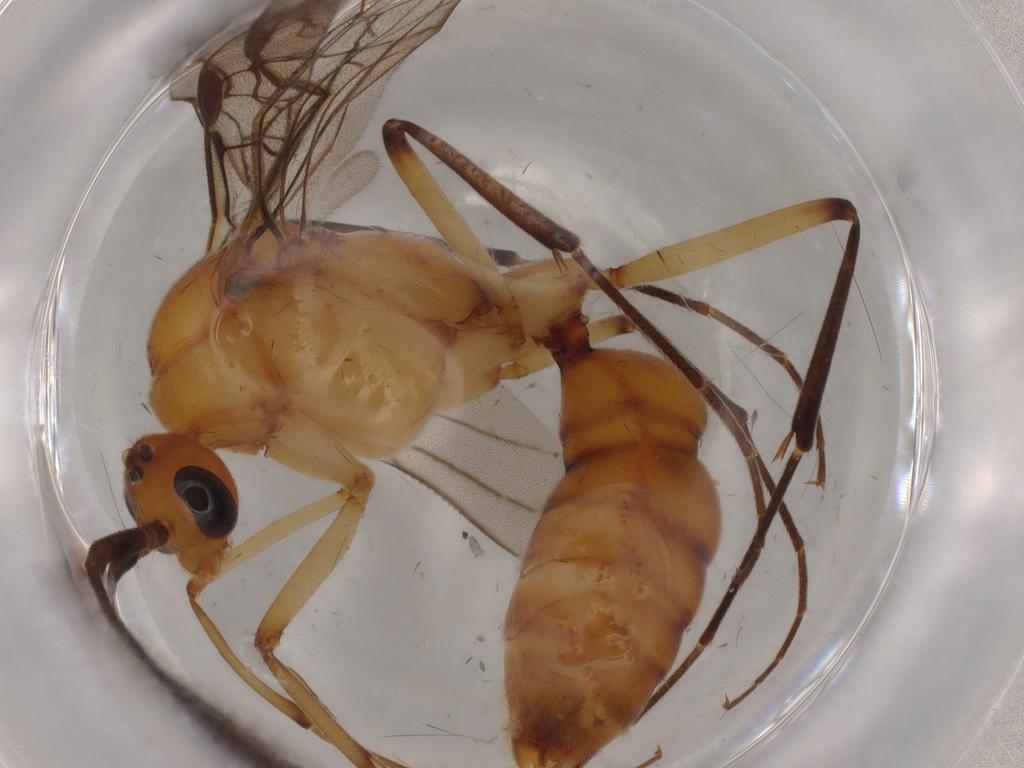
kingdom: Animalia
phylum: Arthropoda
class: Insecta
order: Hymenoptera
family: Formicidae
